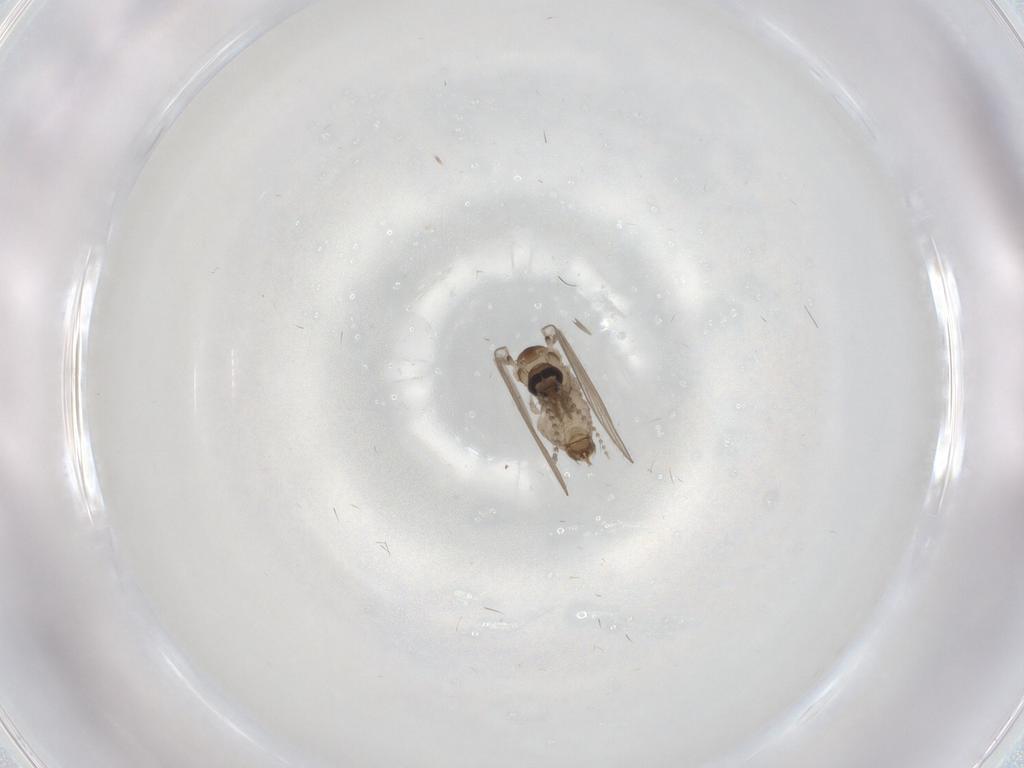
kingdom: Animalia
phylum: Arthropoda
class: Insecta
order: Diptera
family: Psychodidae
